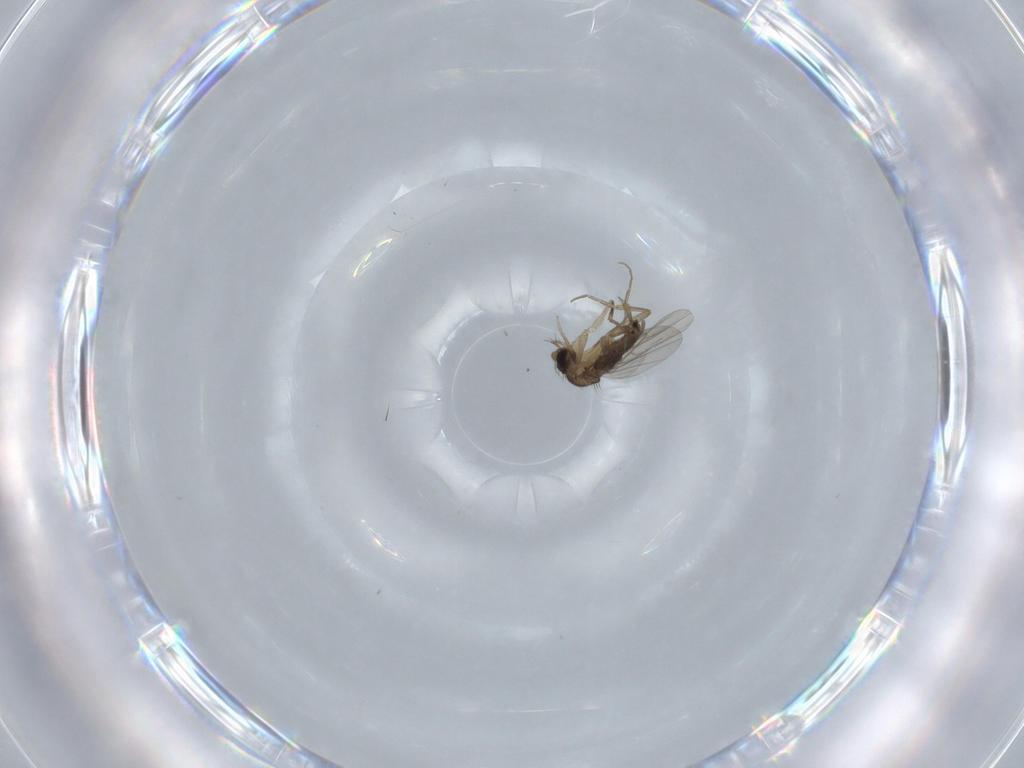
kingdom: Animalia
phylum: Arthropoda
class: Insecta
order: Diptera
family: Phoridae
